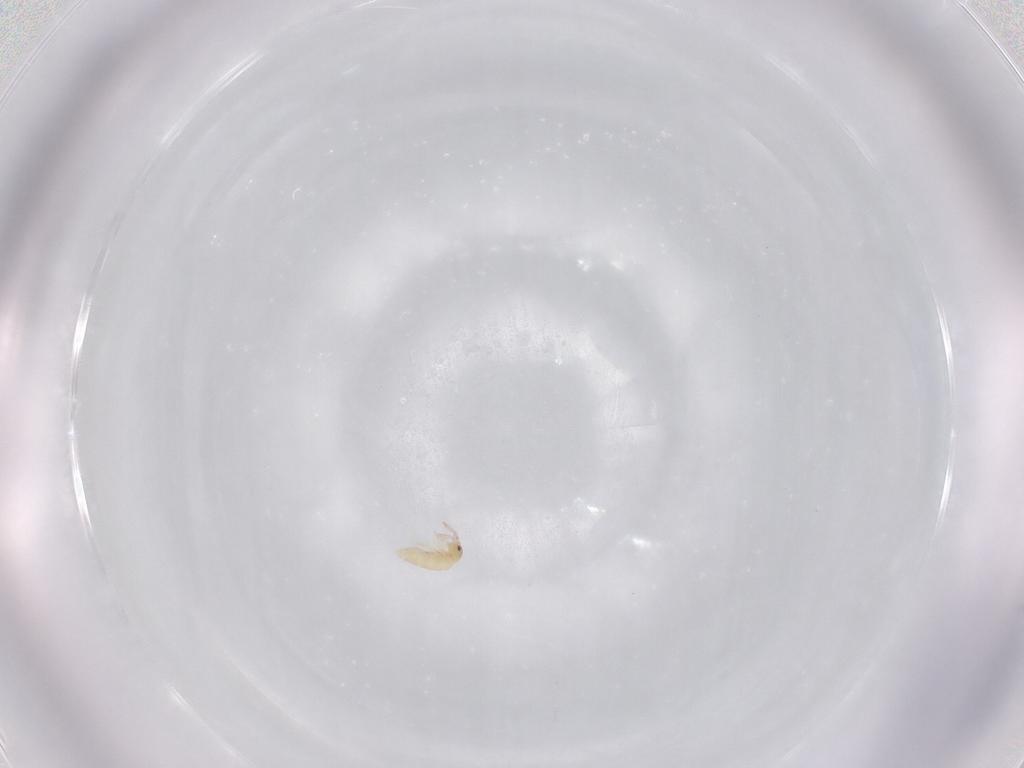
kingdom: Animalia
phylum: Arthropoda
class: Collembola
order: Entomobryomorpha
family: Entomobryidae
